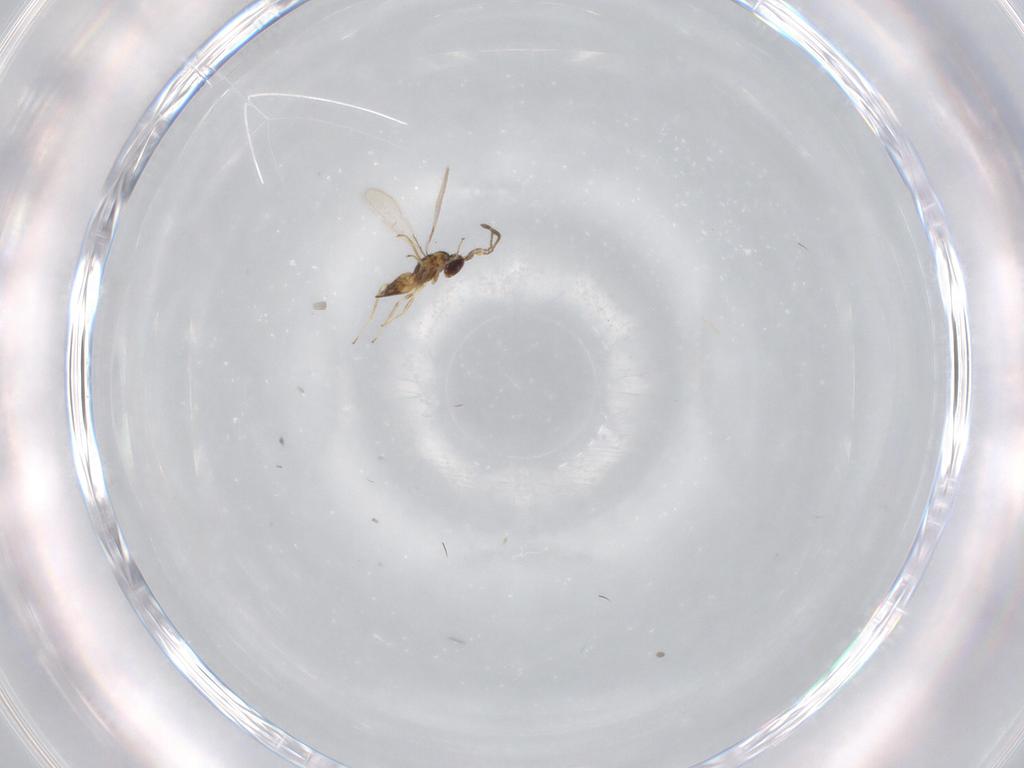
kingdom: Animalia
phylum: Arthropoda
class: Insecta
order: Hymenoptera
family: Mymaridae
